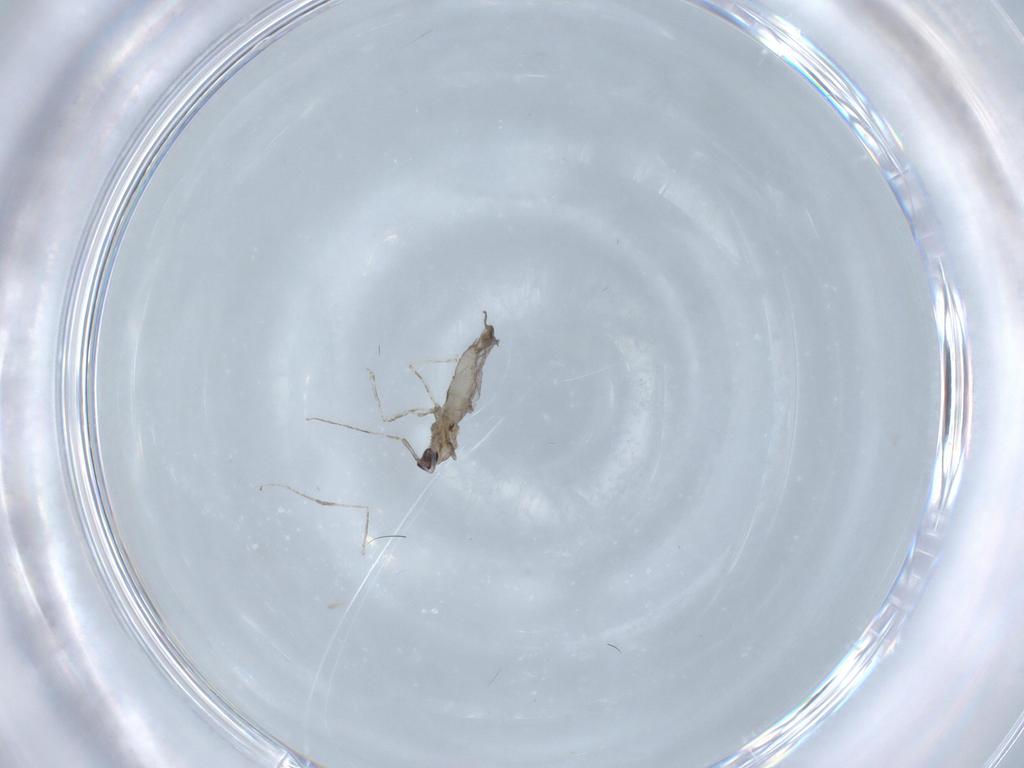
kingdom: Animalia
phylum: Arthropoda
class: Insecta
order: Diptera
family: Cecidomyiidae
